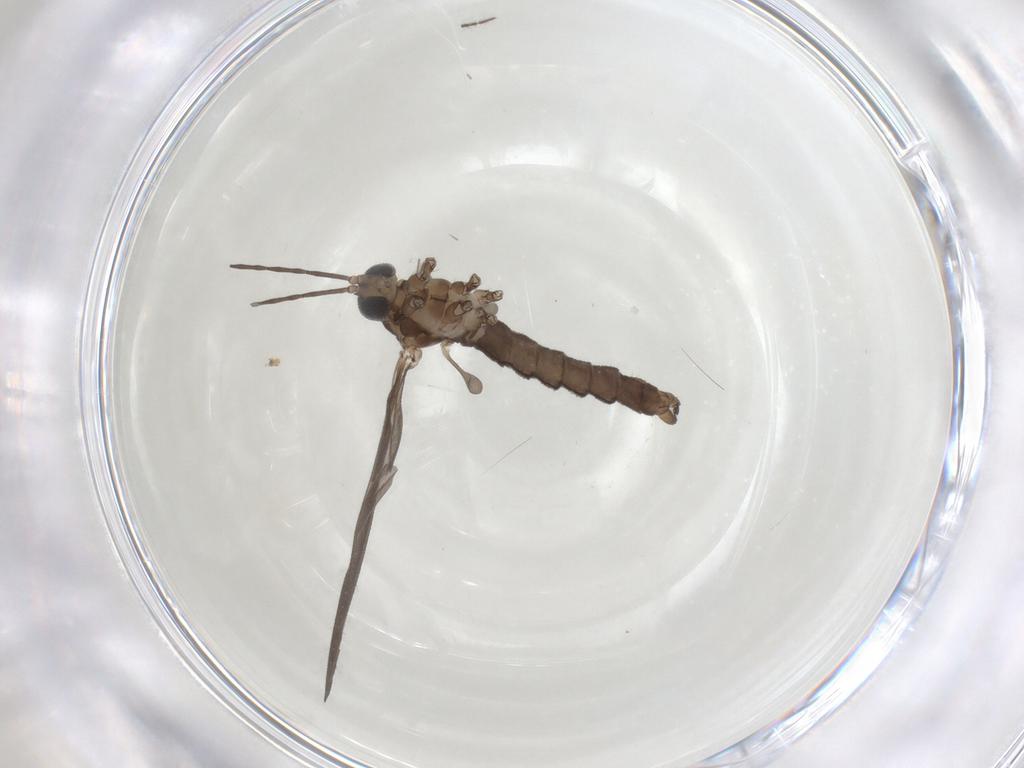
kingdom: Animalia
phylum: Arthropoda
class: Insecta
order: Diptera
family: Limoniidae
